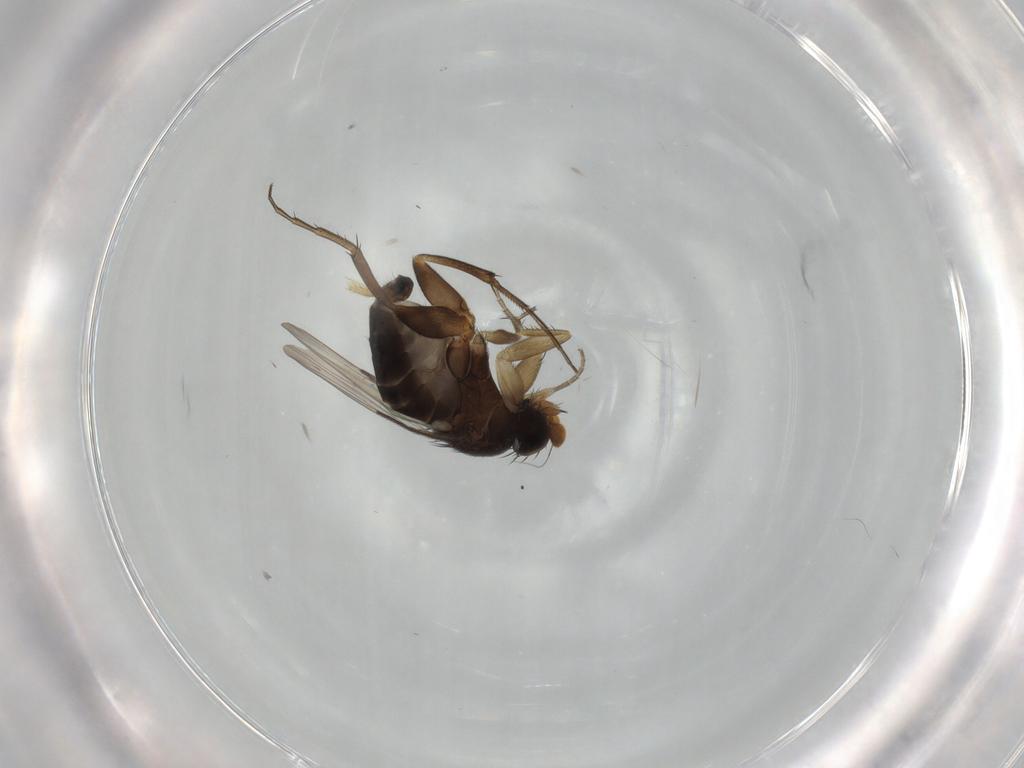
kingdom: Animalia
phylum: Arthropoda
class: Insecta
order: Diptera
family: Phoridae
